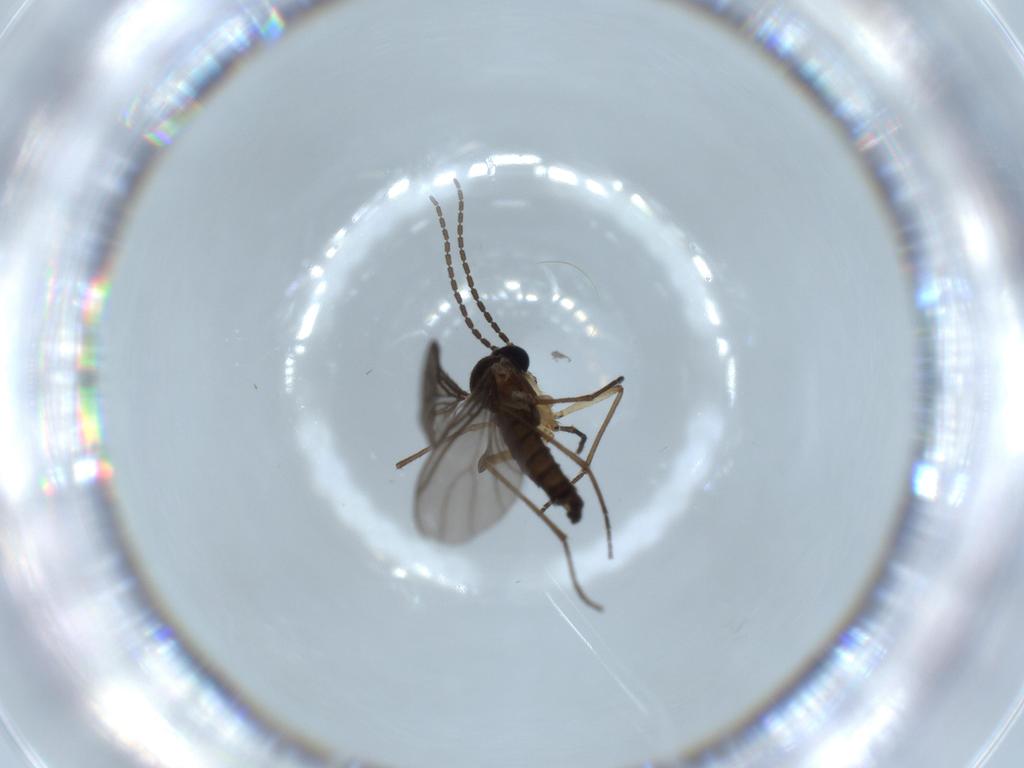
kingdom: Animalia
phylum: Arthropoda
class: Insecta
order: Diptera
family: Sciaridae
